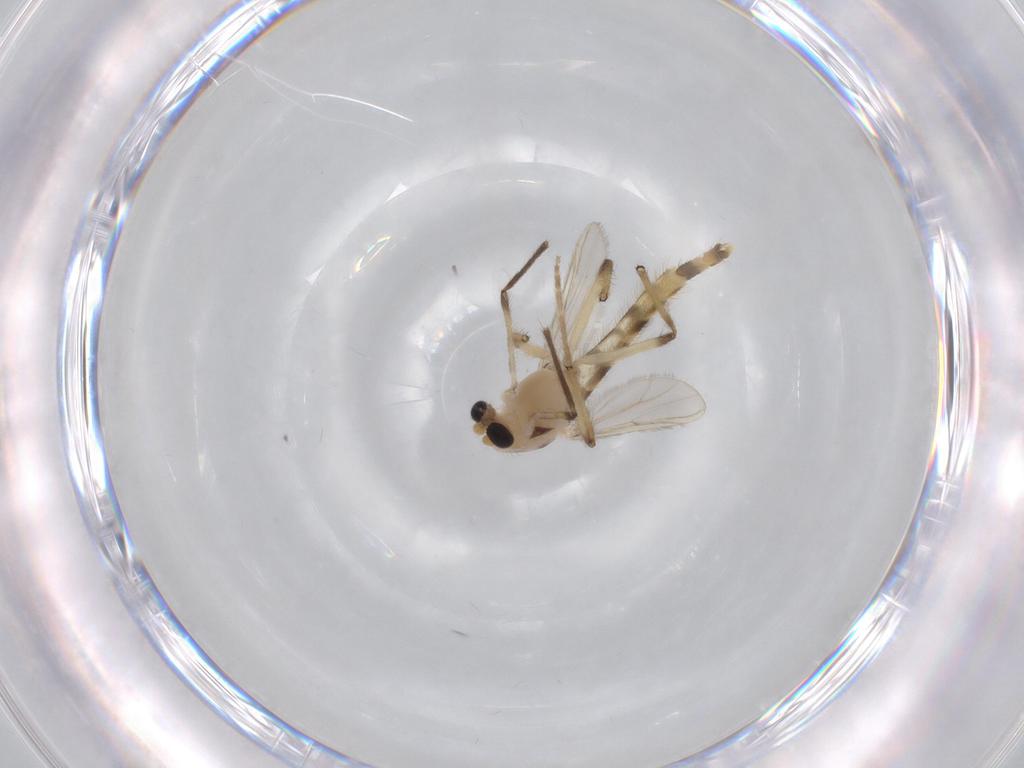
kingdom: Animalia
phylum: Arthropoda
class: Insecta
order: Diptera
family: Chironomidae
